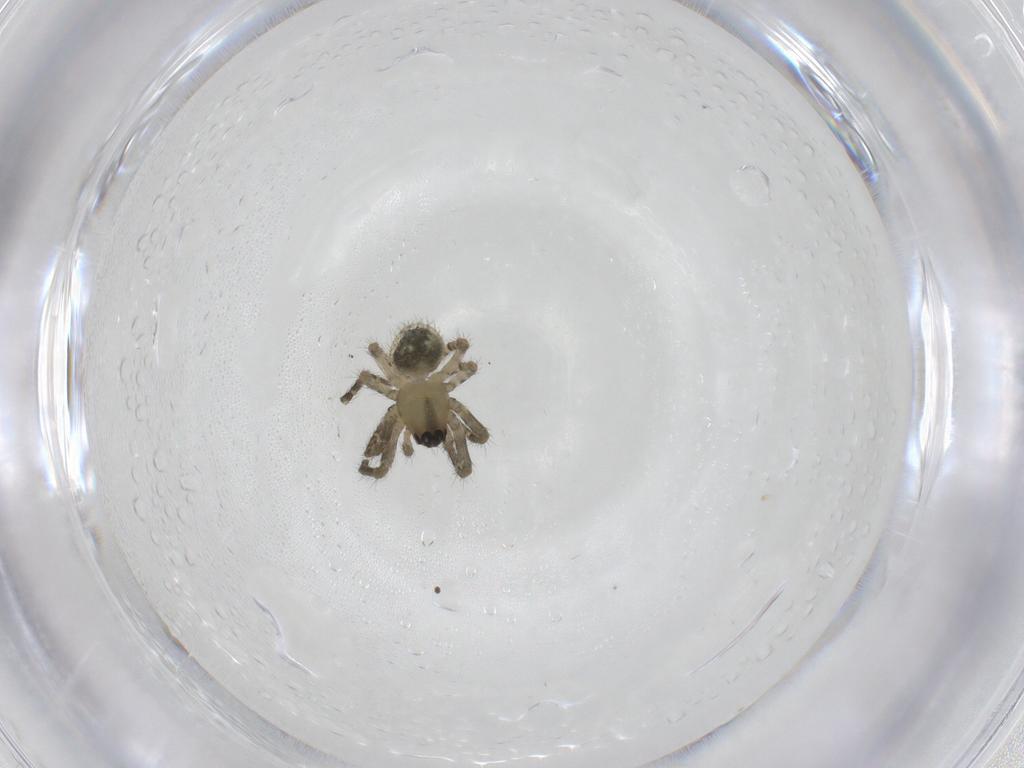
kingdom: Animalia
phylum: Arthropoda
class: Arachnida
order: Araneae
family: Araneidae
